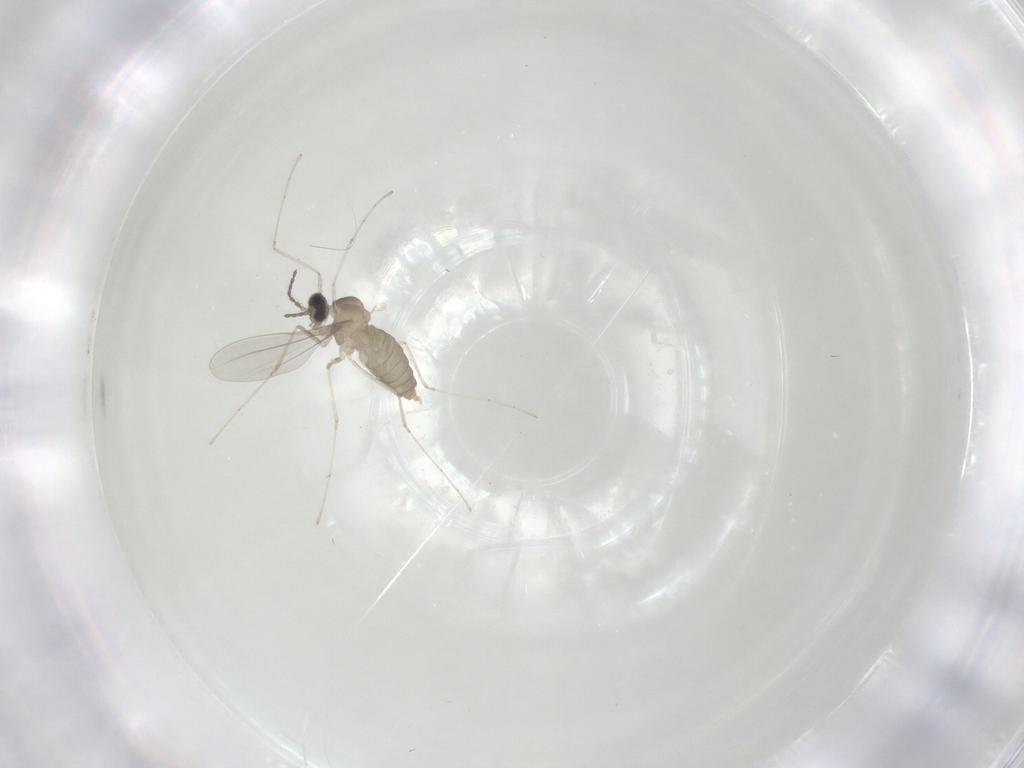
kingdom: Animalia
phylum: Arthropoda
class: Insecta
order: Diptera
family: Cecidomyiidae
